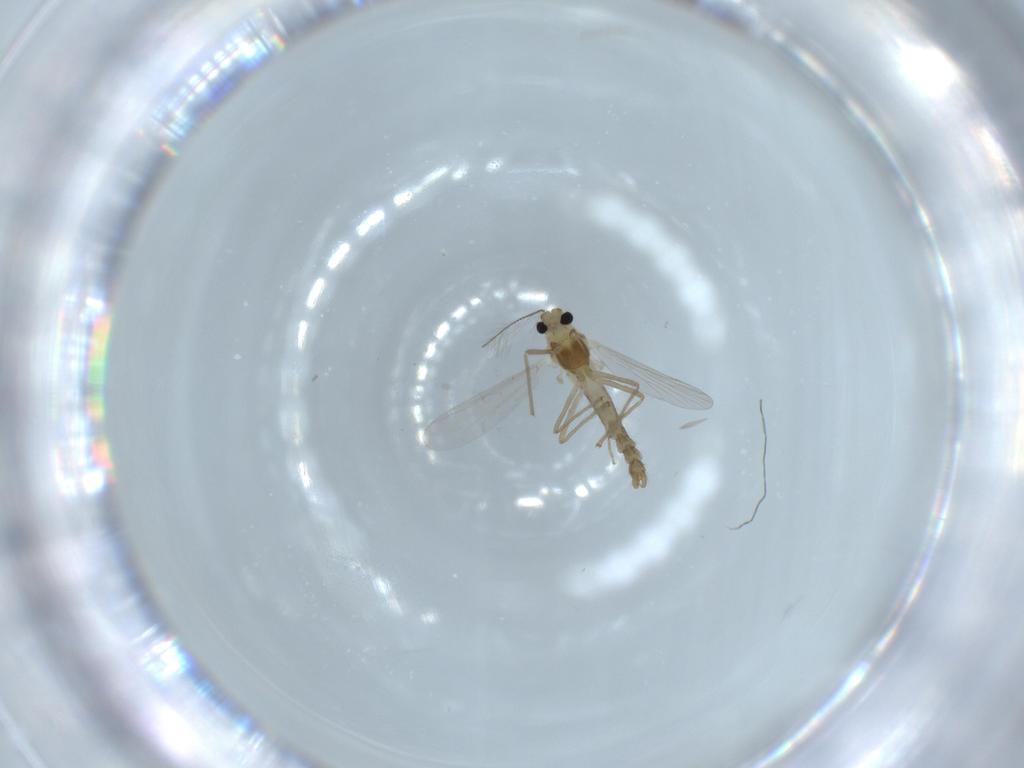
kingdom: Animalia
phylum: Arthropoda
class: Insecta
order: Diptera
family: Chironomidae
